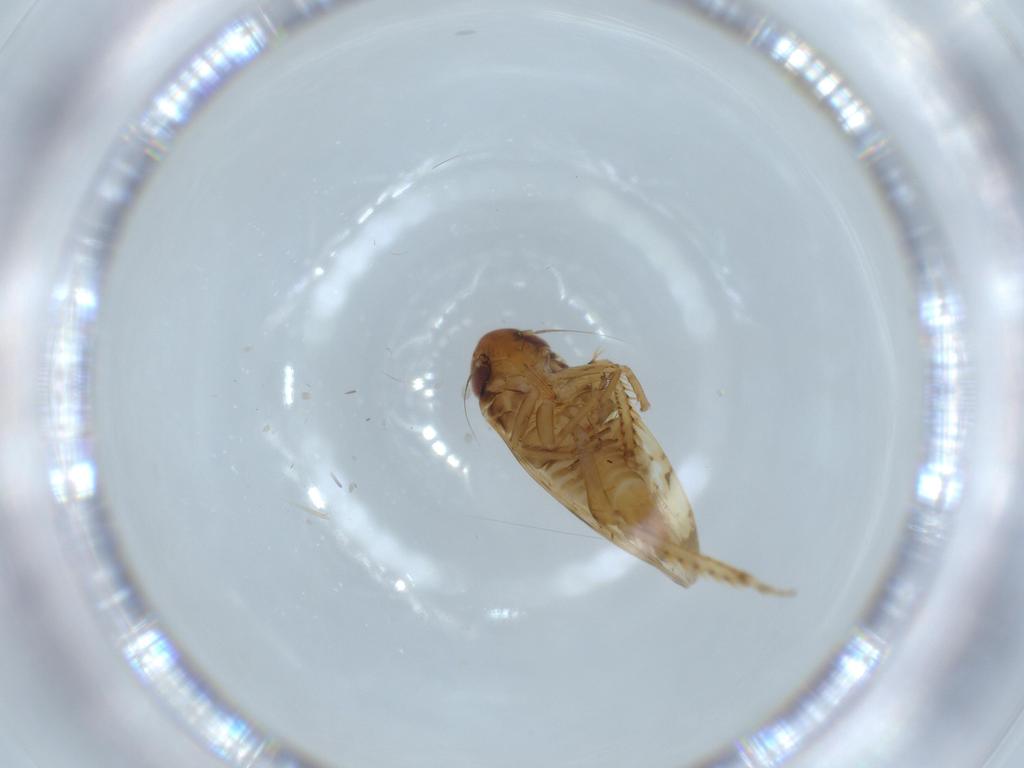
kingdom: Animalia
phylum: Arthropoda
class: Insecta
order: Hemiptera
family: Cicadellidae
